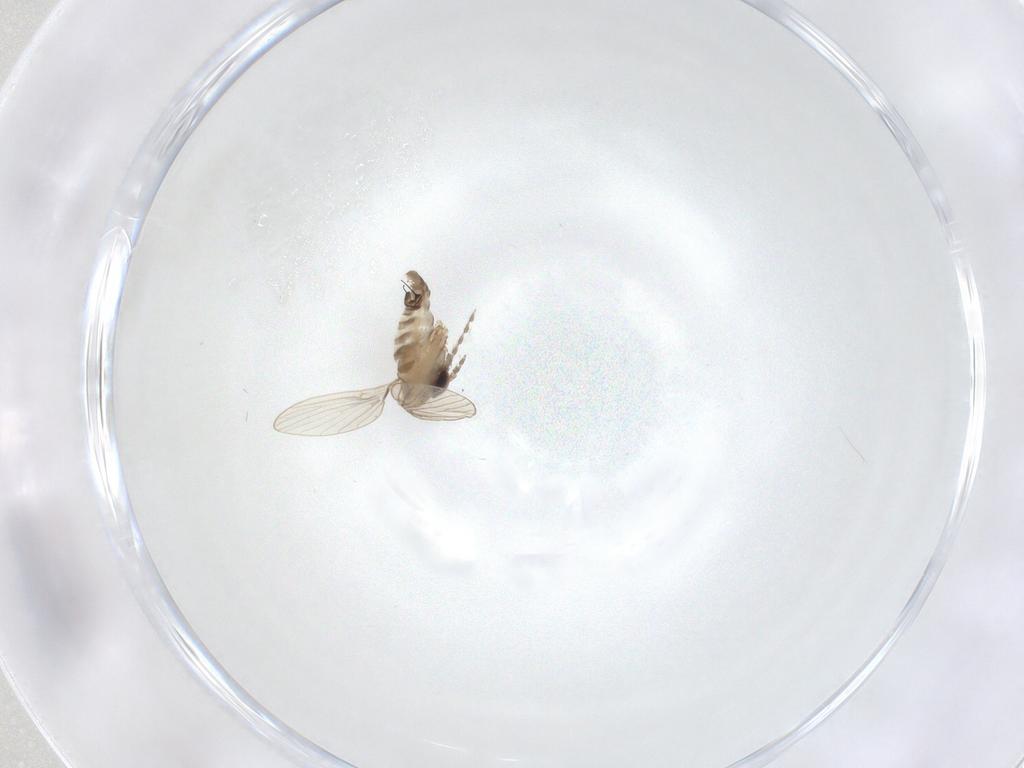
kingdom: Animalia
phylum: Arthropoda
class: Insecta
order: Diptera
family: Psychodidae
